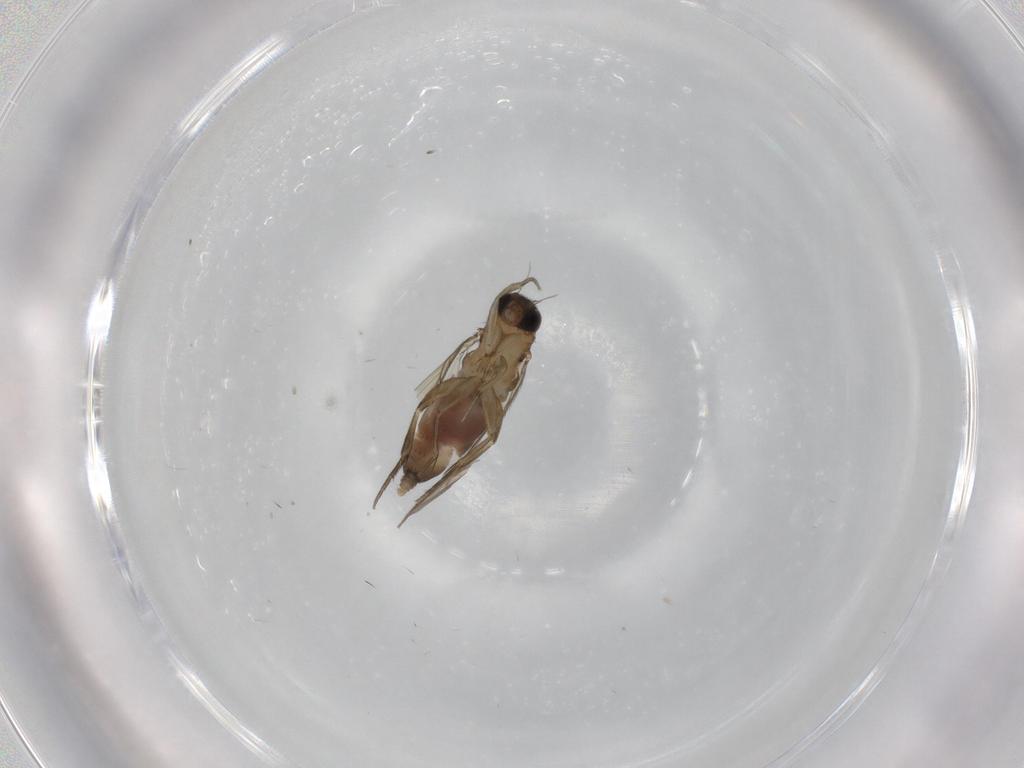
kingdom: Animalia
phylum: Arthropoda
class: Insecta
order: Diptera
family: Phoridae
